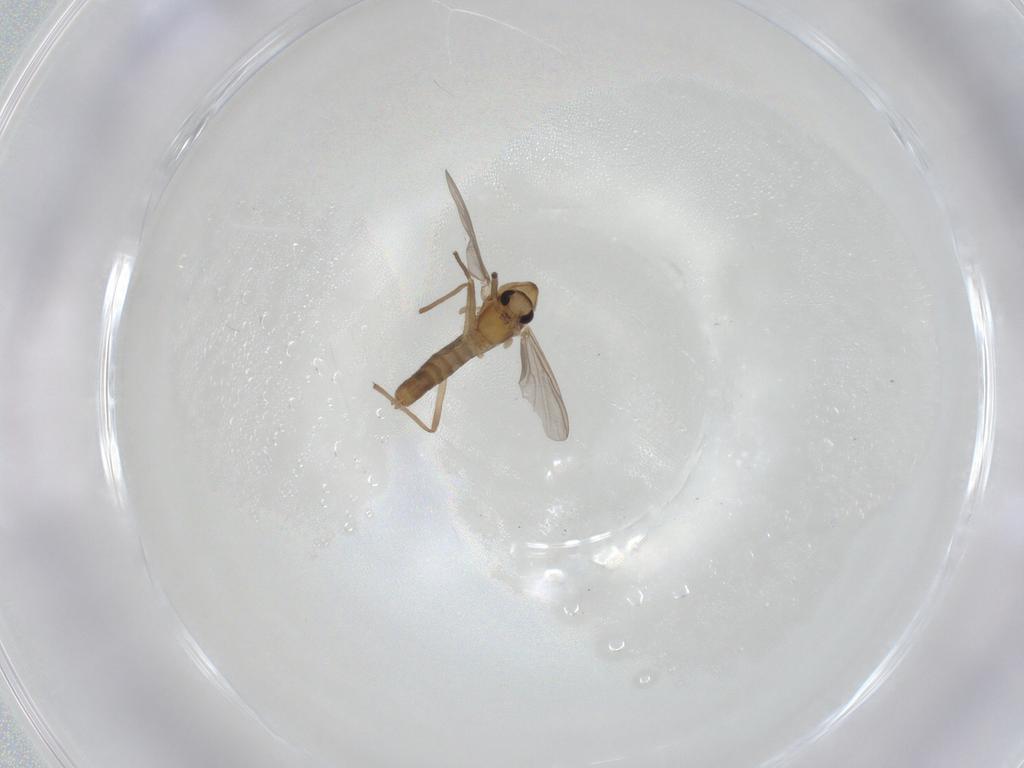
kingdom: Animalia
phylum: Arthropoda
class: Insecta
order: Diptera
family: Chironomidae
